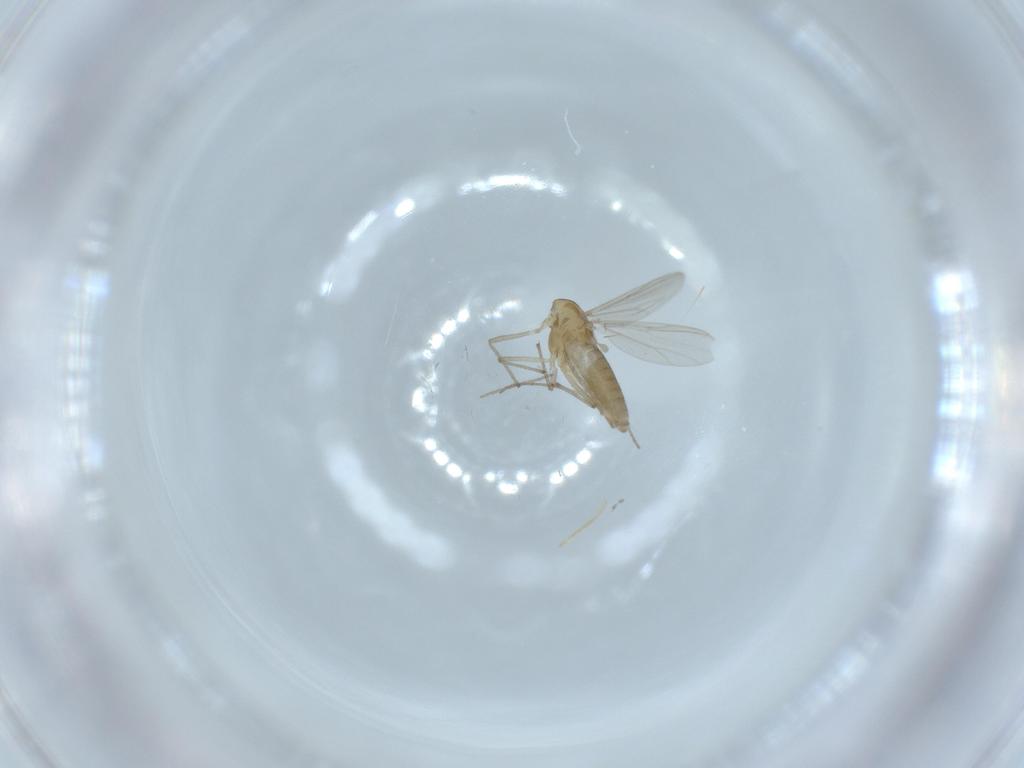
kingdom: Animalia
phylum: Arthropoda
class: Insecta
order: Diptera
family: Chironomidae
